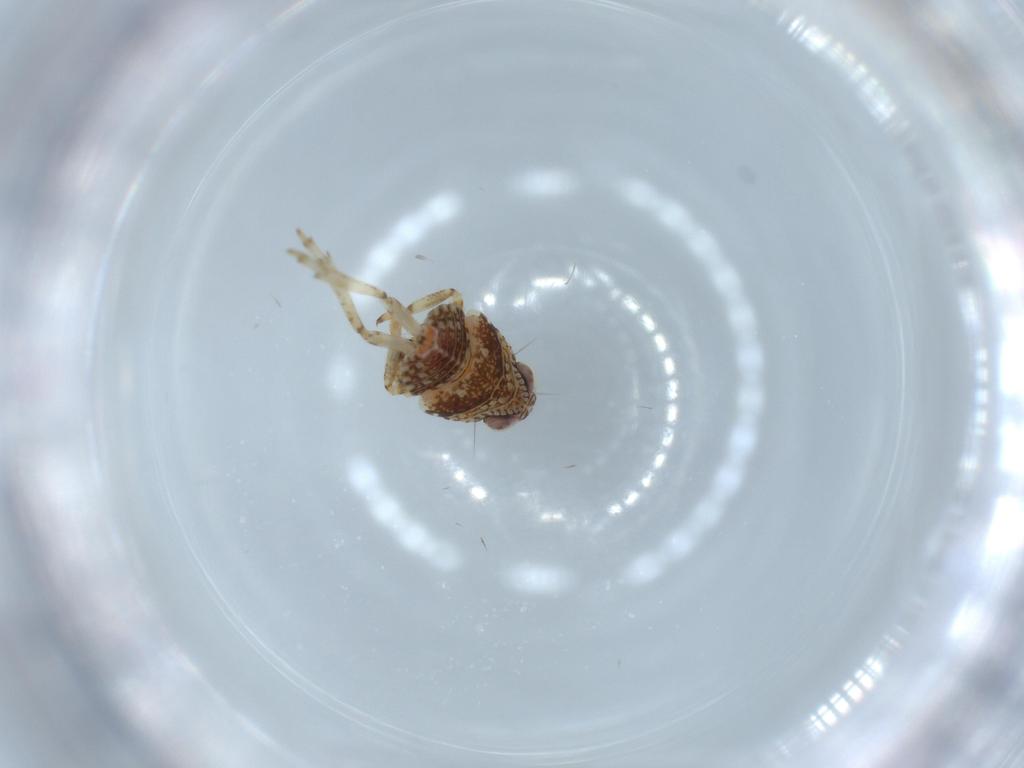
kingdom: Animalia
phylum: Arthropoda
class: Insecta
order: Hemiptera
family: Issidae
